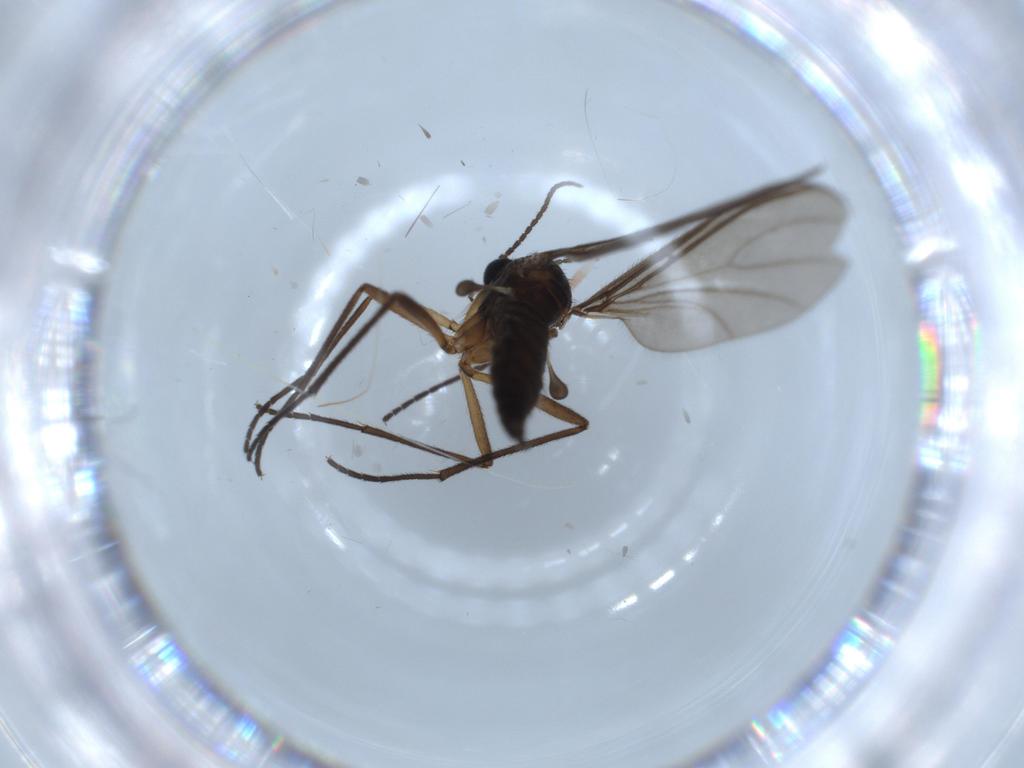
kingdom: Animalia
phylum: Arthropoda
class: Insecta
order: Diptera
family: Sciaridae
